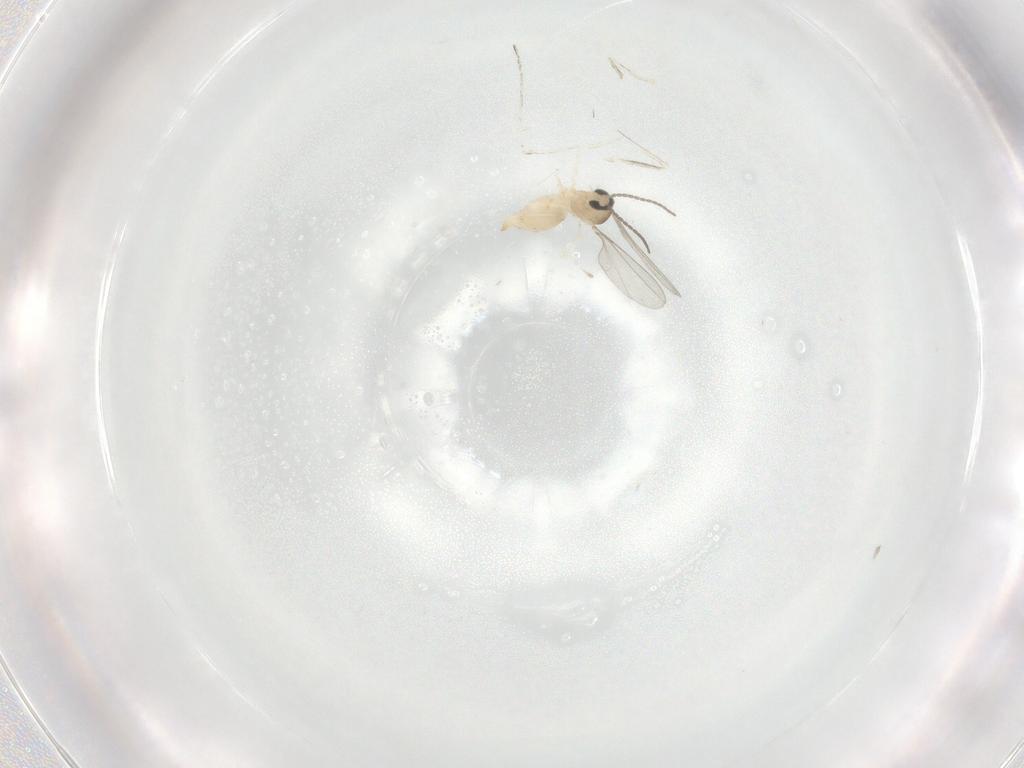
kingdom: Animalia
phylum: Arthropoda
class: Insecta
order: Diptera
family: Cecidomyiidae
